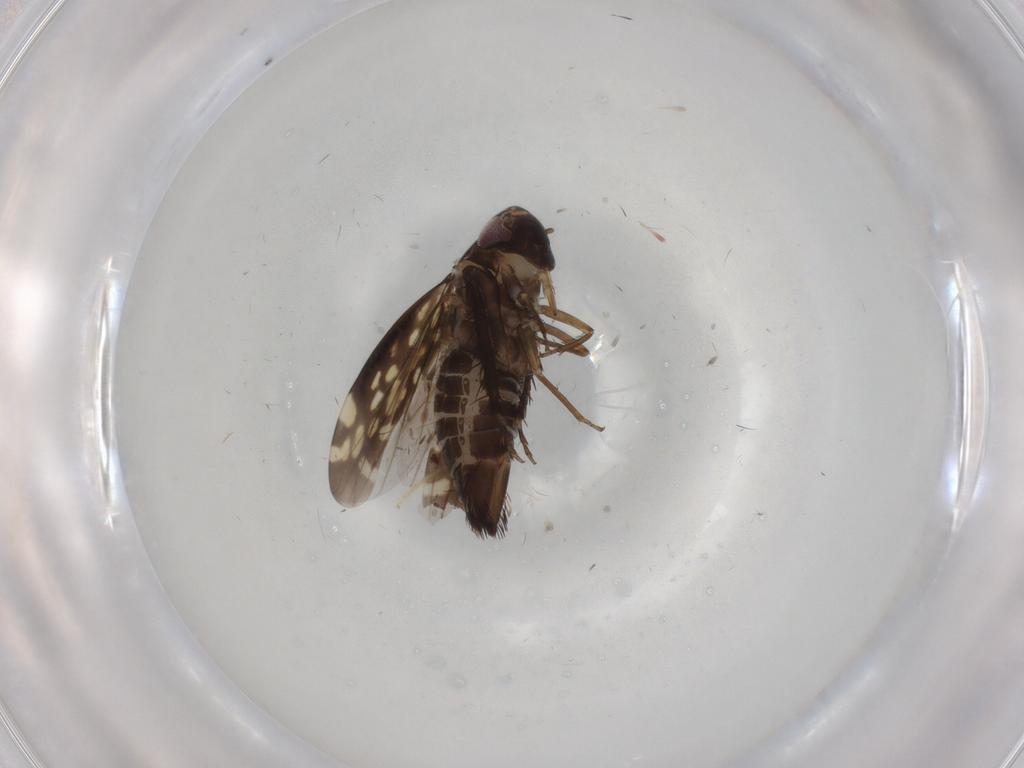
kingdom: Animalia
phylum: Arthropoda
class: Insecta
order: Hemiptera
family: Cicadellidae
